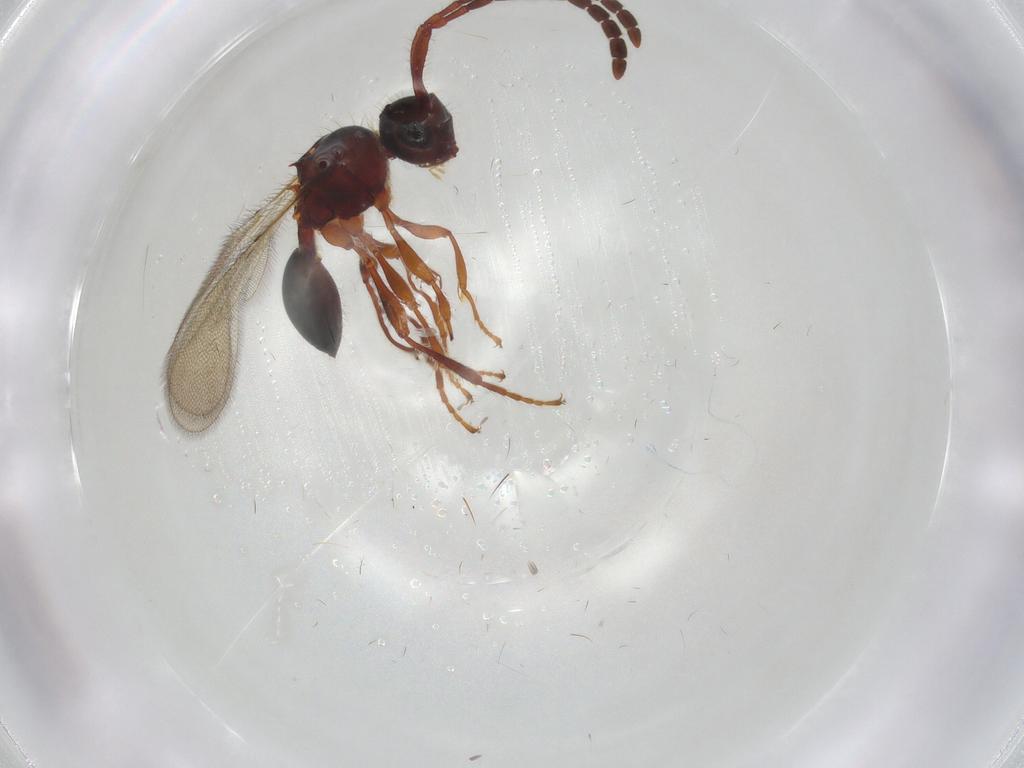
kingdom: Animalia
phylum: Arthropoda
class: Insecta
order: Hymenoptera
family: Diapriidae
